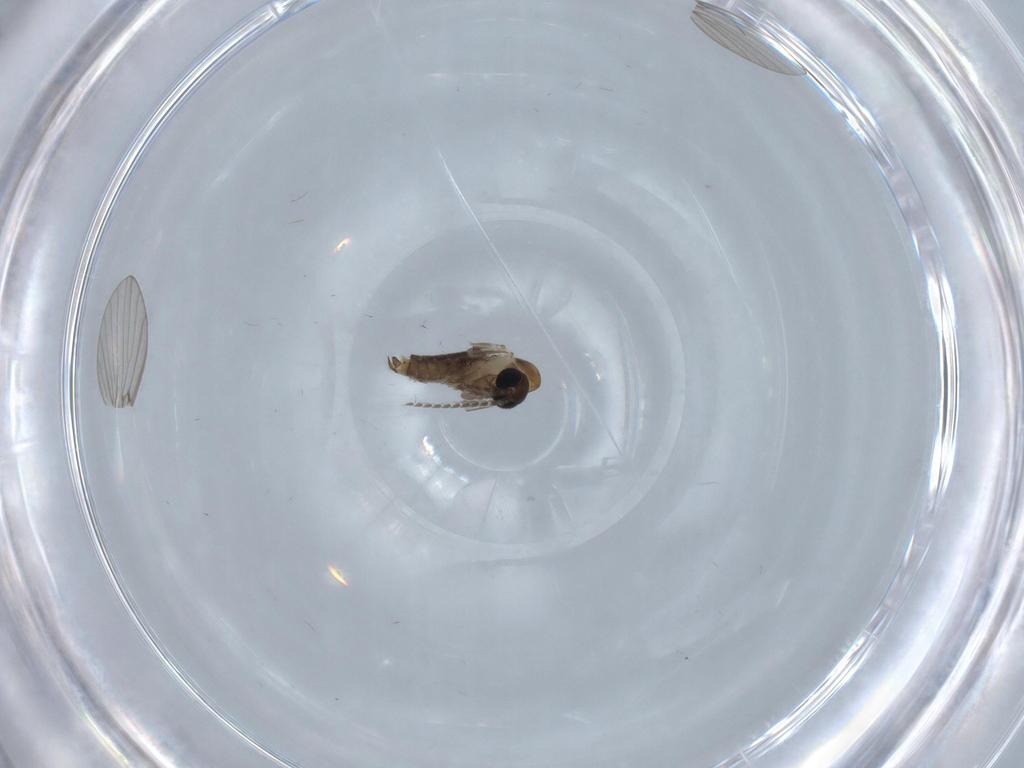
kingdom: Animalia
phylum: Arthropoda
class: Insecta
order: Diptera
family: Psychodidae
